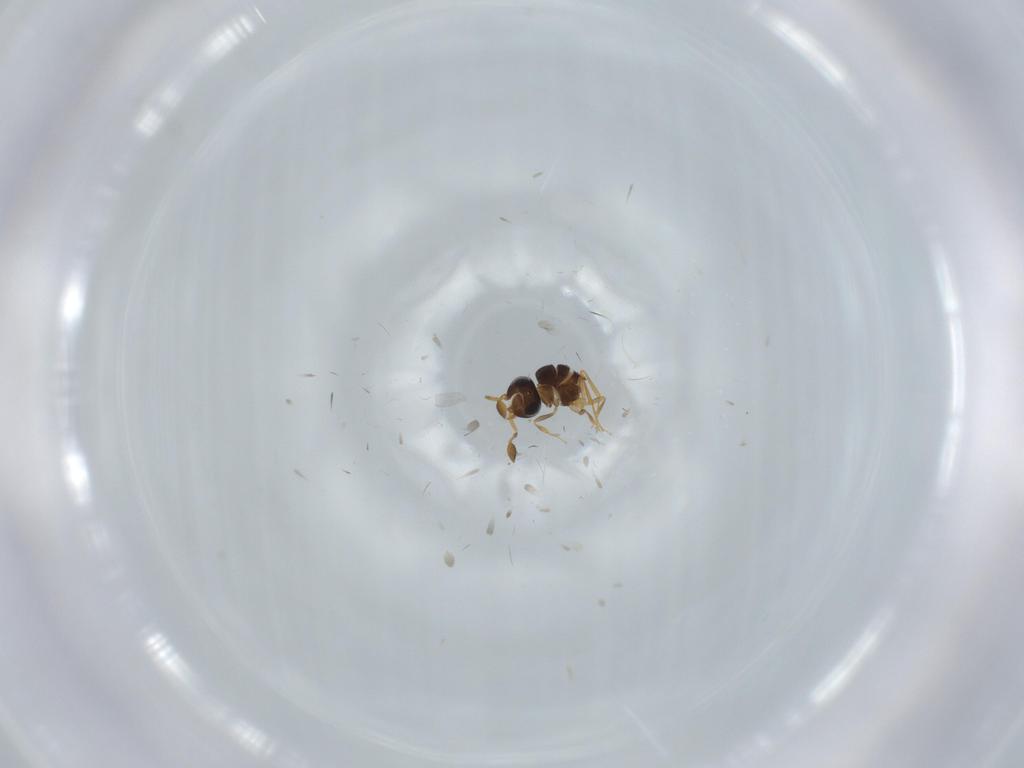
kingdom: Animalia
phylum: Arthropoda
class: Insecta
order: Hymenoptera
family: Scelionidae
